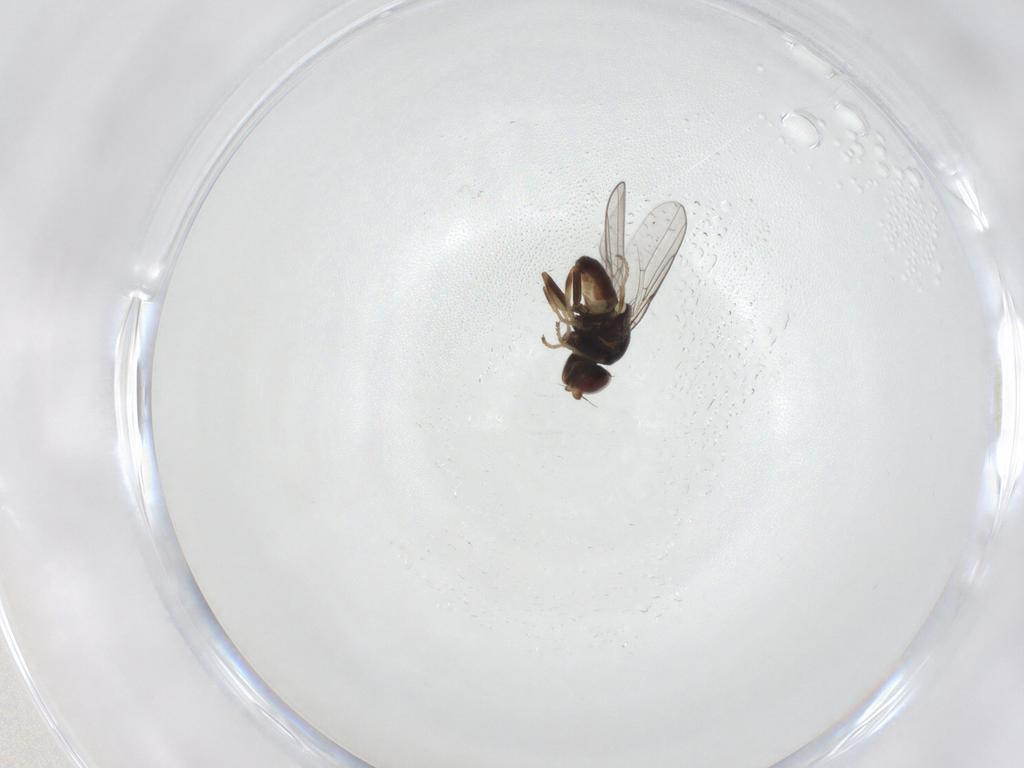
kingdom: Animalia
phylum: Arthropoda
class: Insecta
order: Diptera
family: Chloropidae
